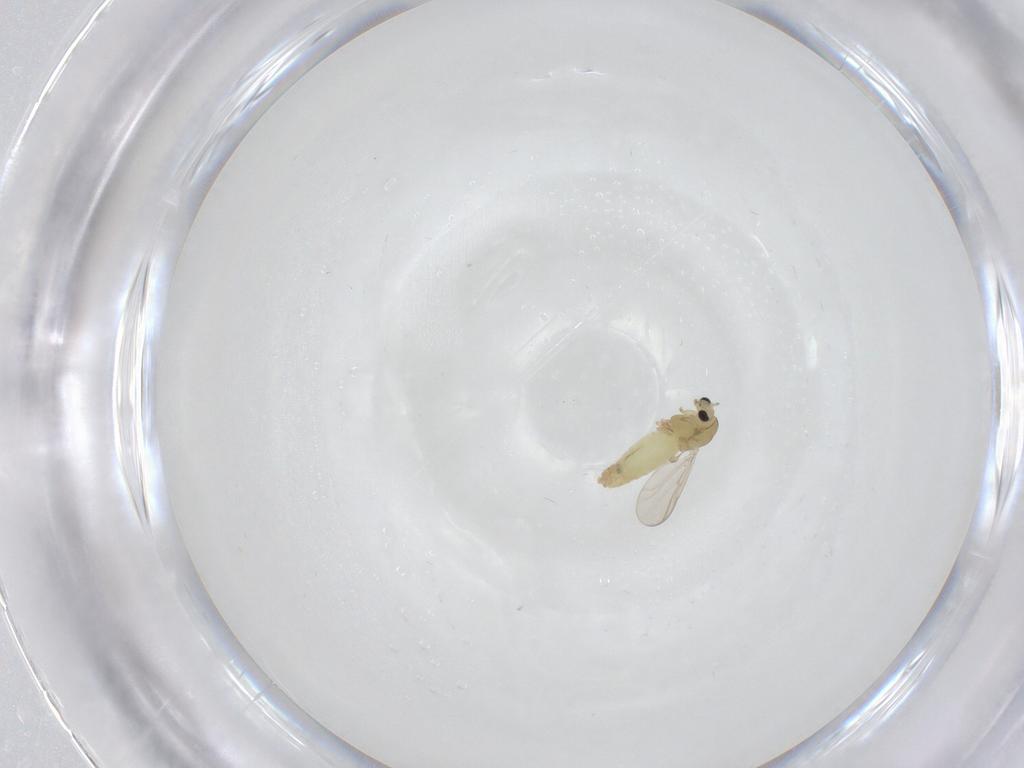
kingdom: Animalia
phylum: Arthropoda
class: Insecta
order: Diptera
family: Chironomidae
